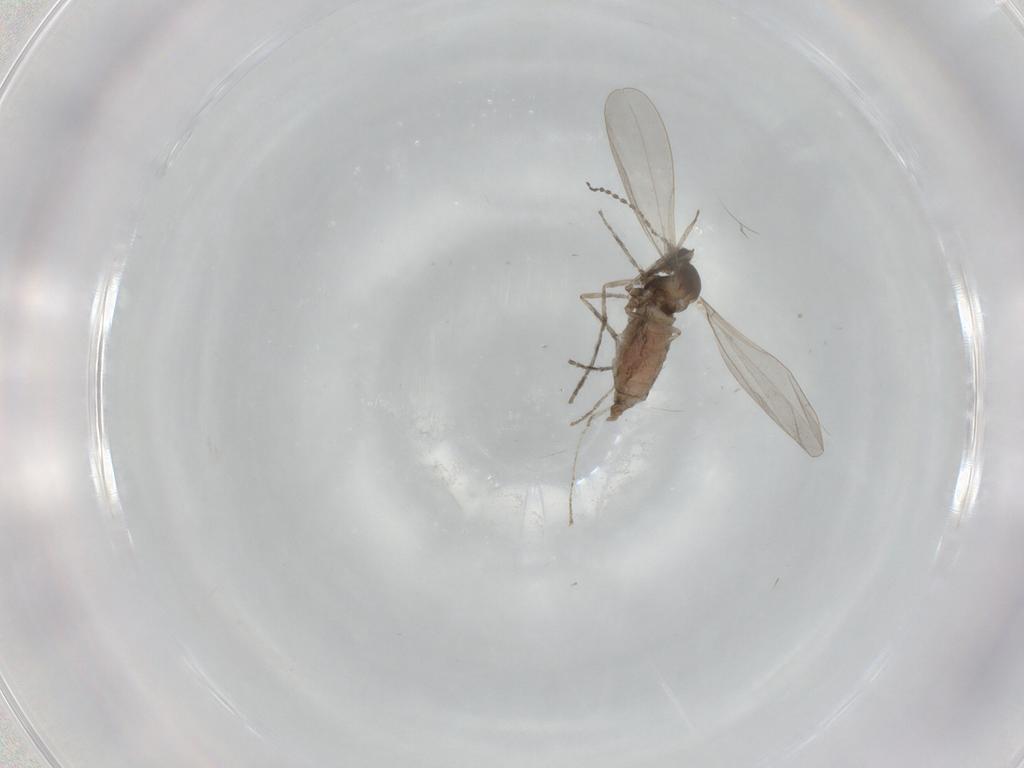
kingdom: Animalia
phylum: Arthropoda
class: Insecta
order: Diptera
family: Cecidomyiidae
